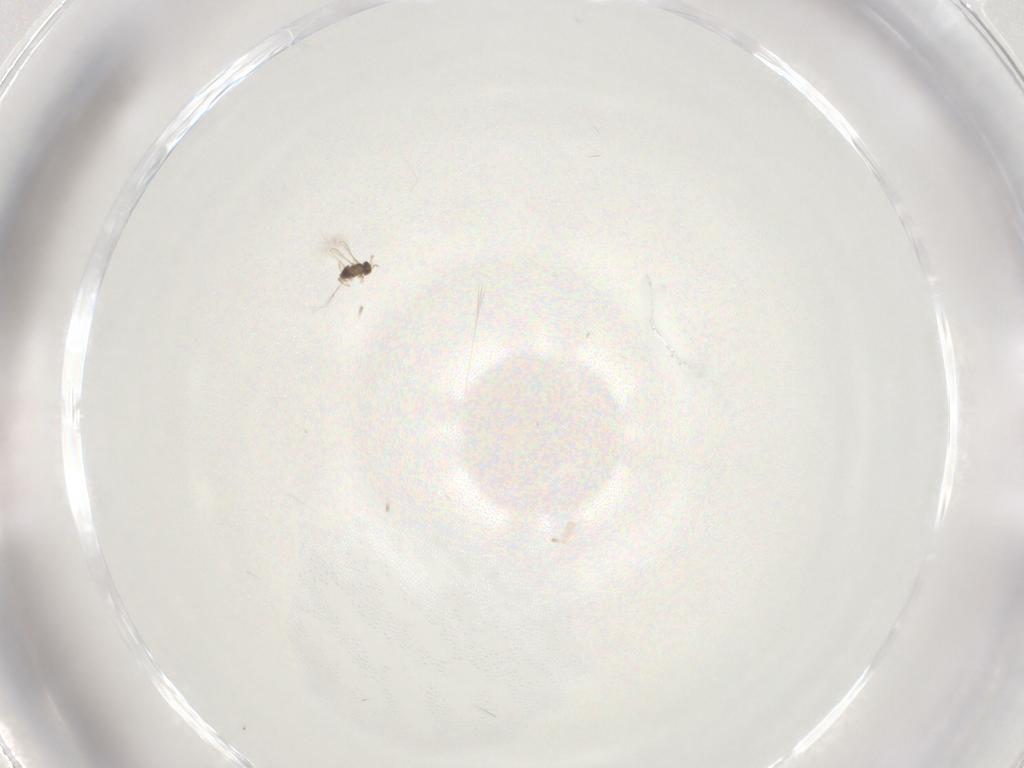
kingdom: Animalia
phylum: Arthropoda
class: Insecta
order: Hymenoptera
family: Mymaridae
